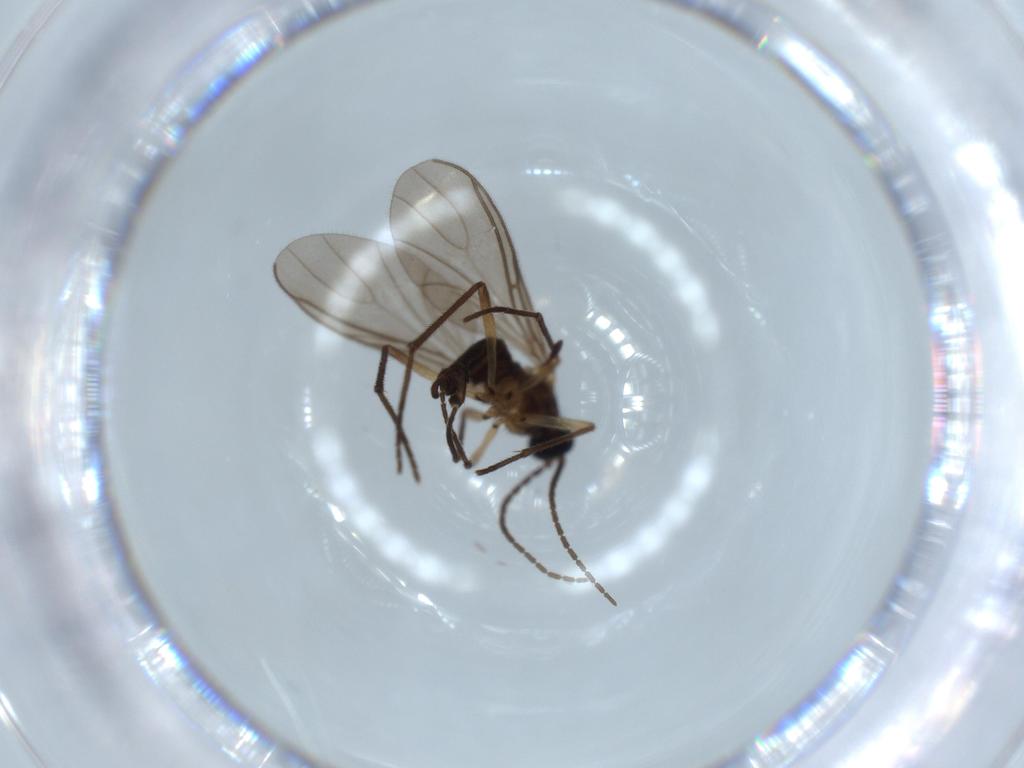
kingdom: Animalia
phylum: Arthropoda
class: Insecta
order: Diptera
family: Sciaridae
